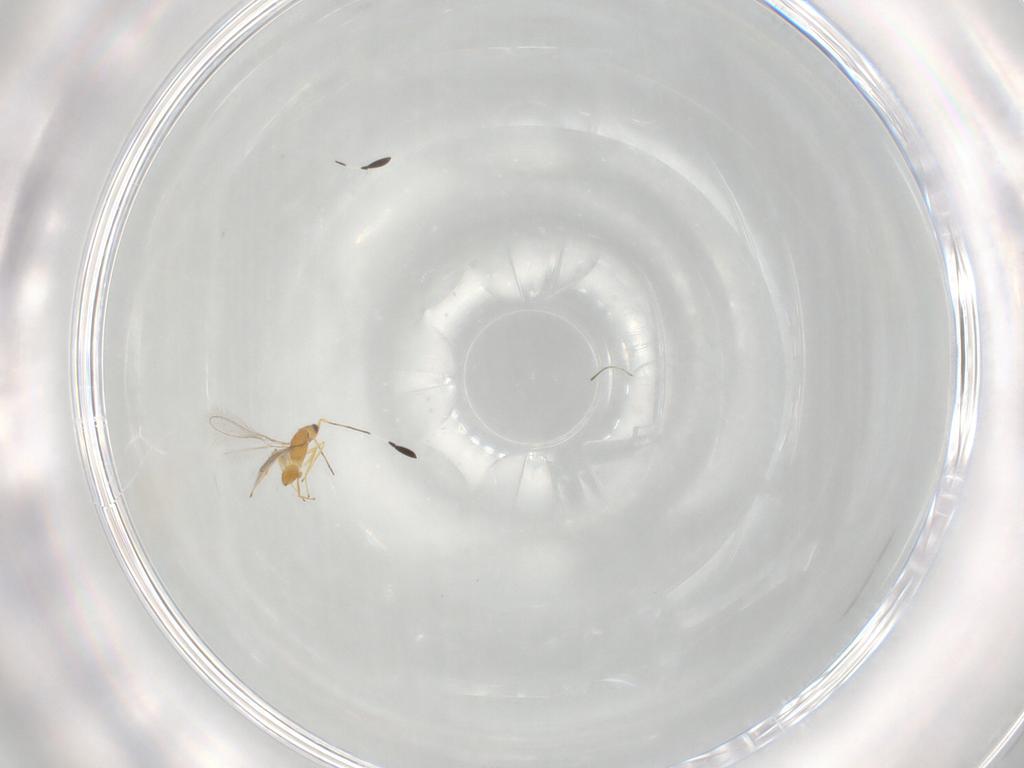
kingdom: Animalia
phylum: Arthropoda
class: Insecta
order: Hymenoptera
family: Mymaridae
